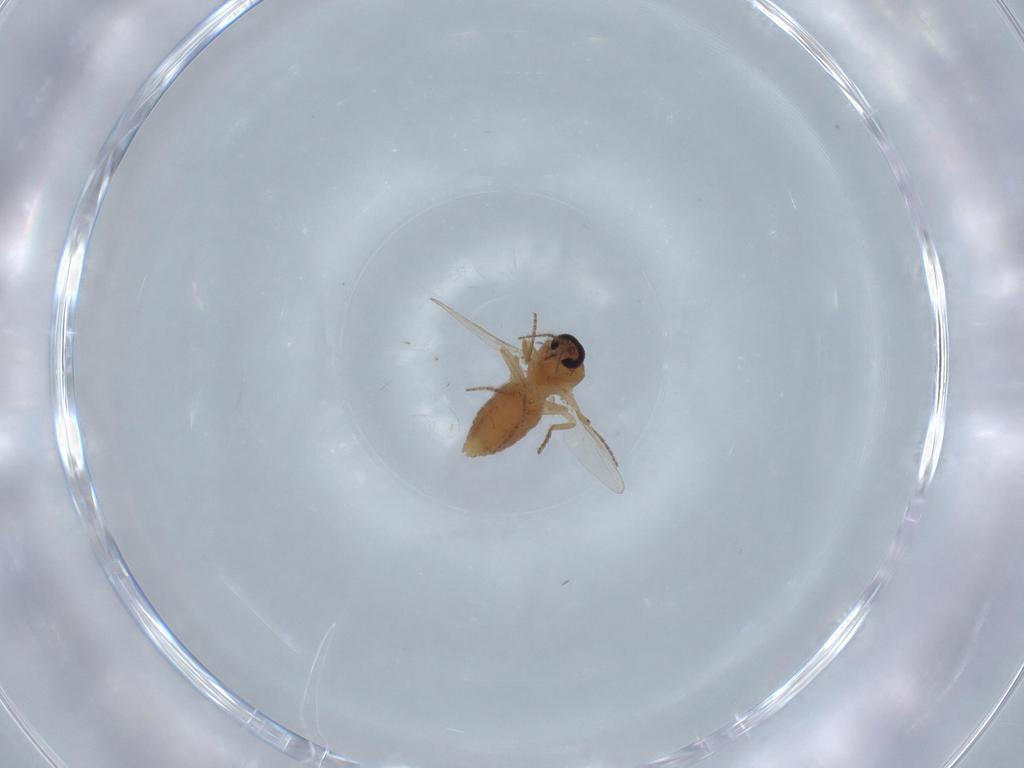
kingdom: Animalia
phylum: Arthropoda
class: Insecta
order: Diptera
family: Ceratopogonidae
